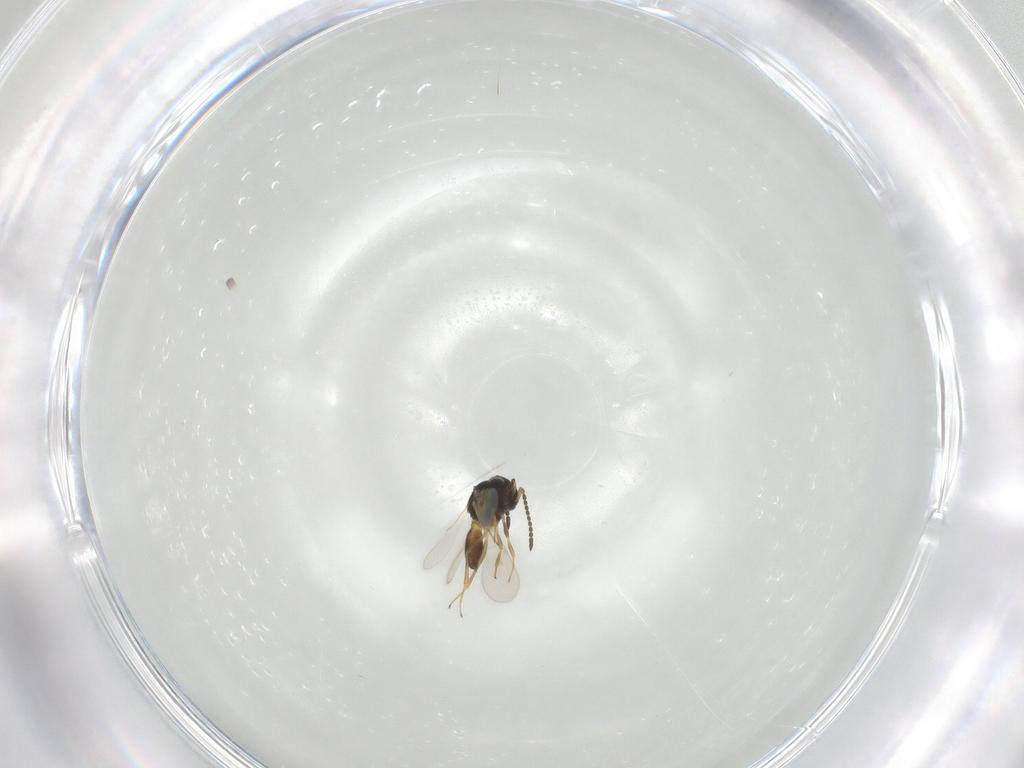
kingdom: Animalia
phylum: Arthropoda
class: Insecta
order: Hymenoptera
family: Scelionidae
